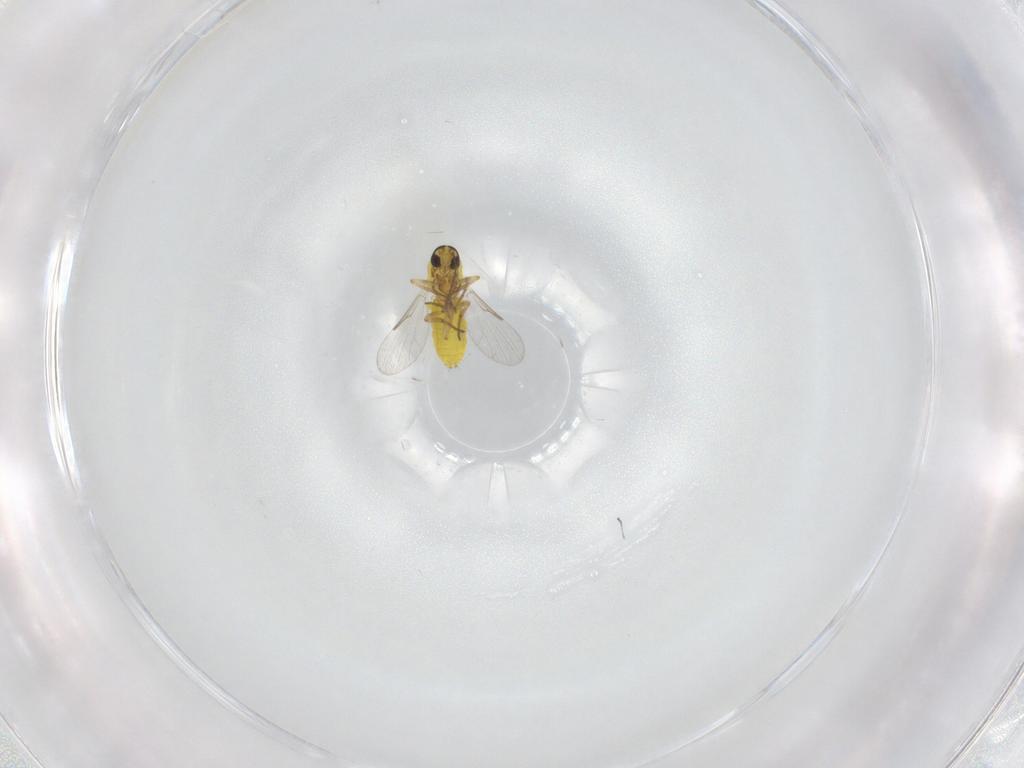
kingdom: Animalia
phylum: Arthropoda
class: Insecta
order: Diptera
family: Ceratopogonidae
